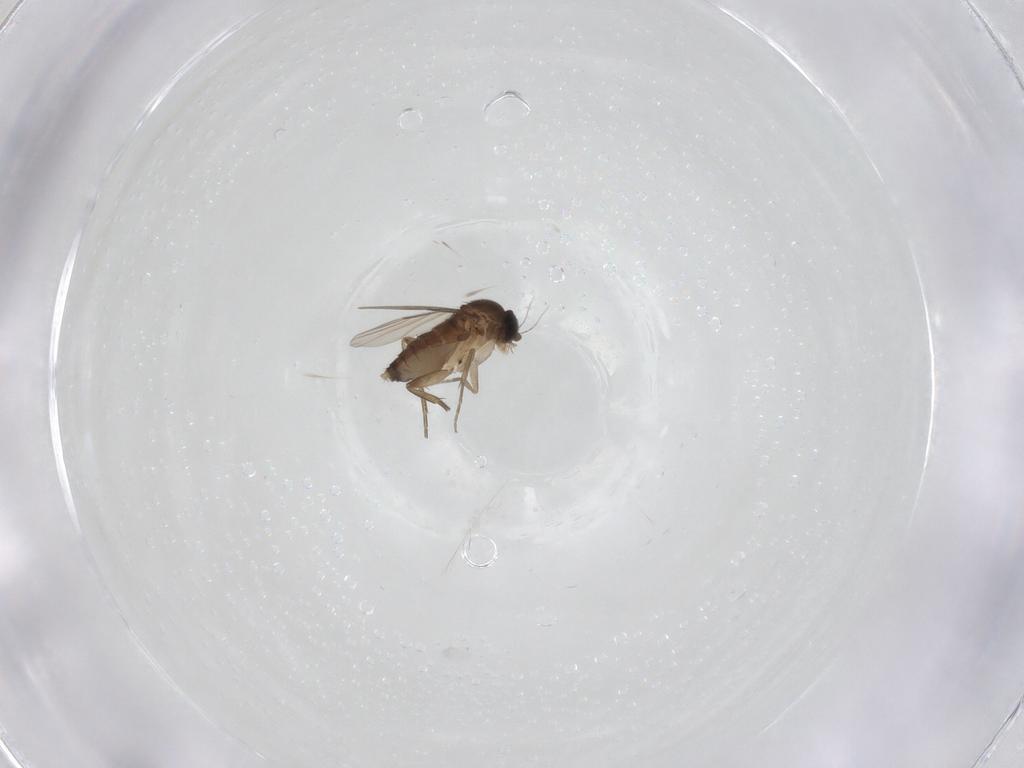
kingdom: Animalia
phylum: Arthropoda
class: Insecta
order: Diptera
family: Phoridae
